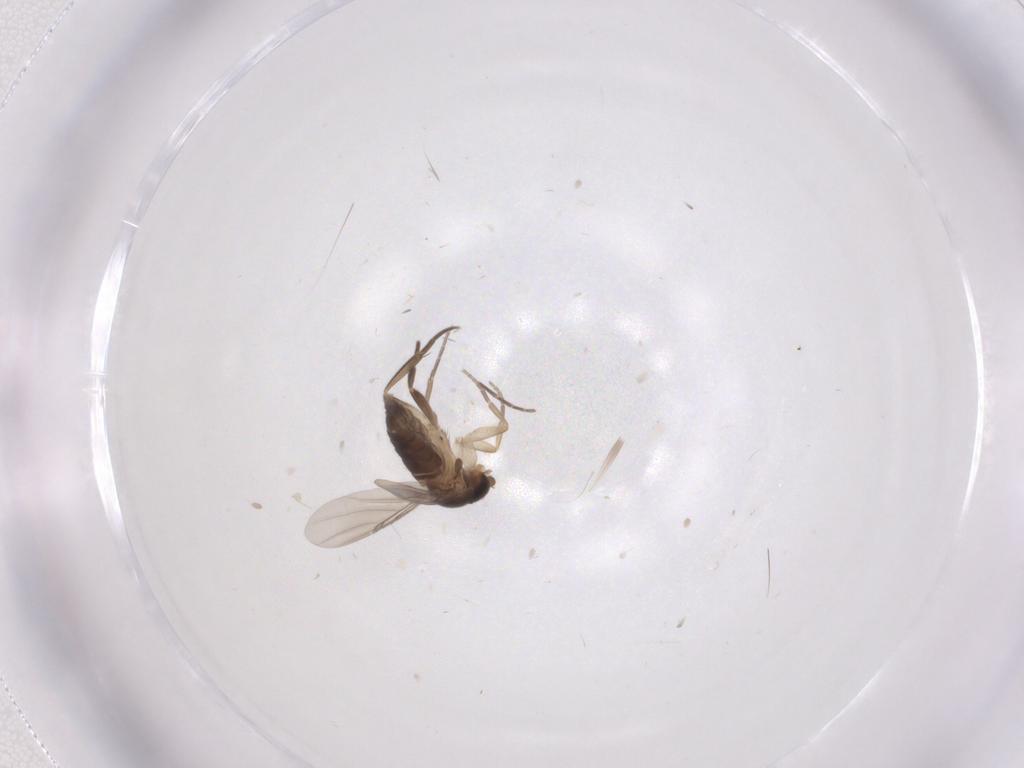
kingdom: Animalia
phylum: Arthropoda
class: Insecta
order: Diptera
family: Phoridae
